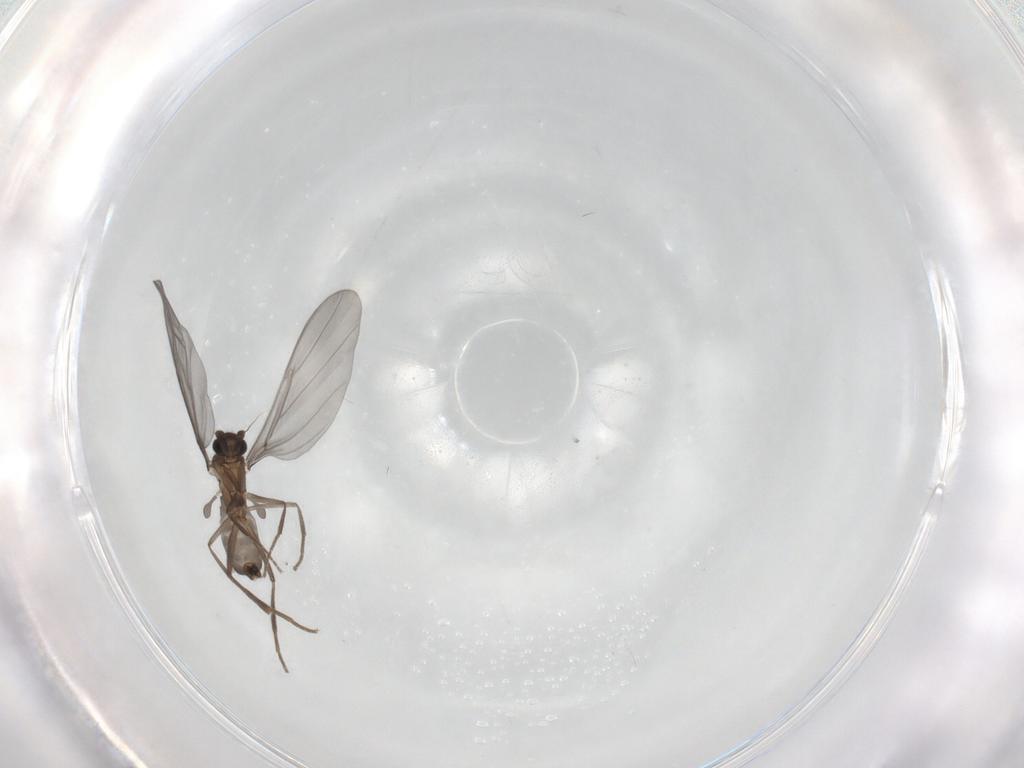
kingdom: Animalia
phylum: Arthropoda
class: Insecta
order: Diptera
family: Phoridae
